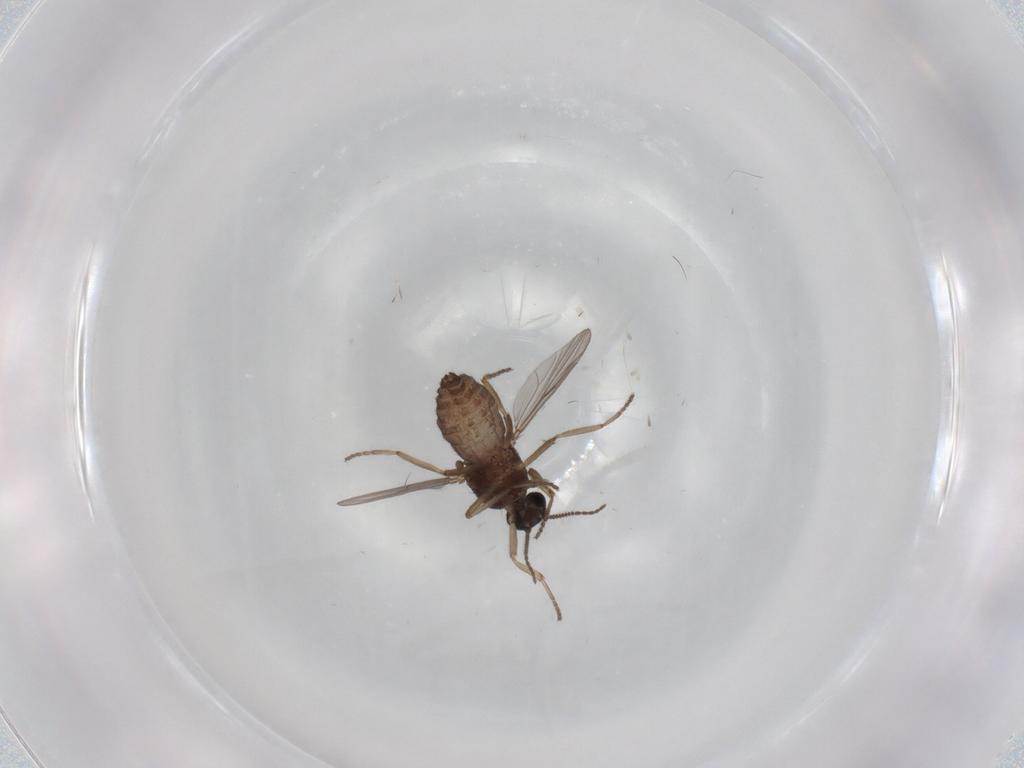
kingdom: Animalia
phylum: Arthropoda
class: Insecta
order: Diptera
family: Ceratopogonidae
